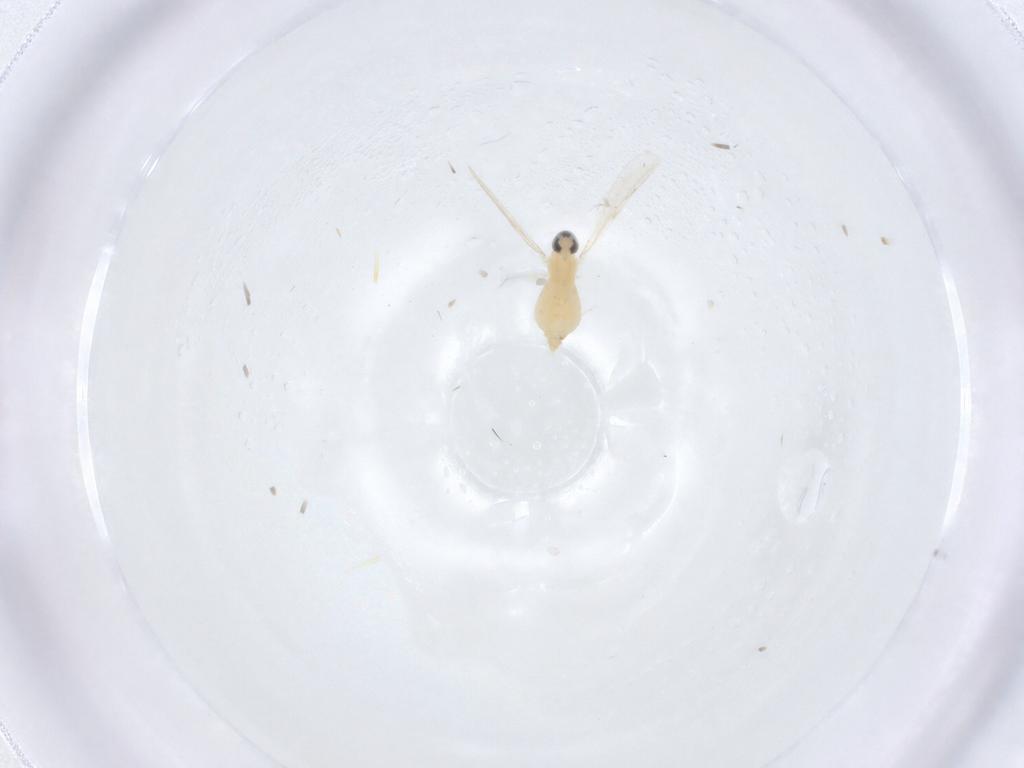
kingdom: Animalia
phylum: Arthropoda
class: Insecta
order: Diptera
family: Cecidomyiidae
